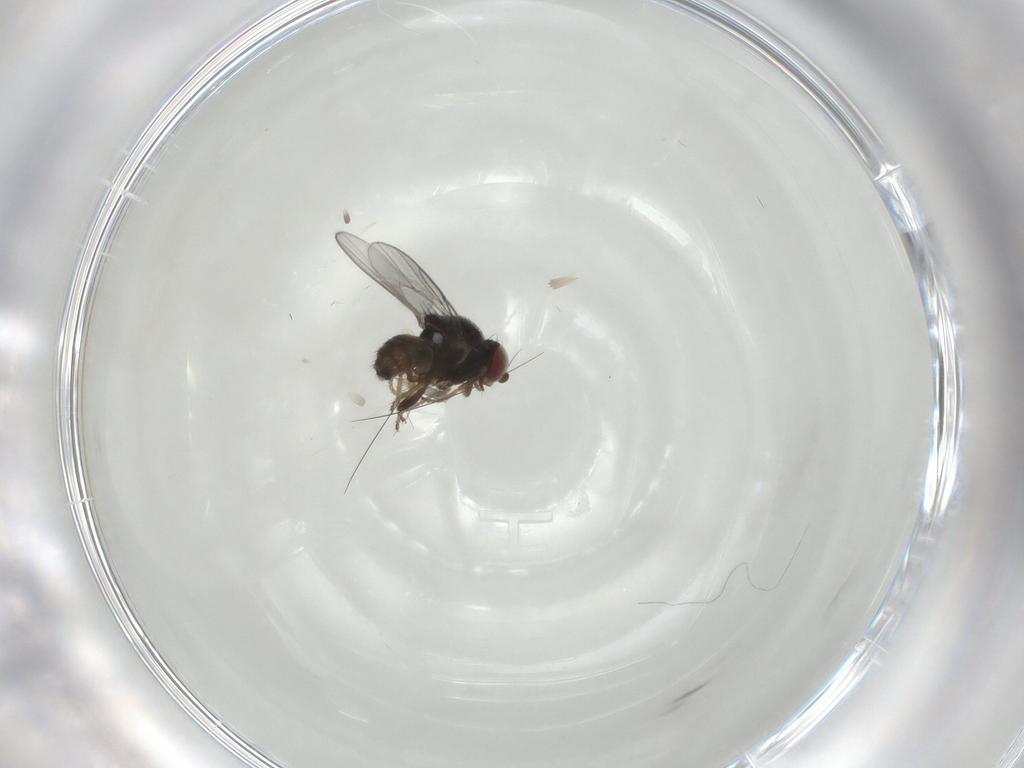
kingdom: Animalia
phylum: Arthropoda
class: Insecta
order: Diptera
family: Chloropidae
